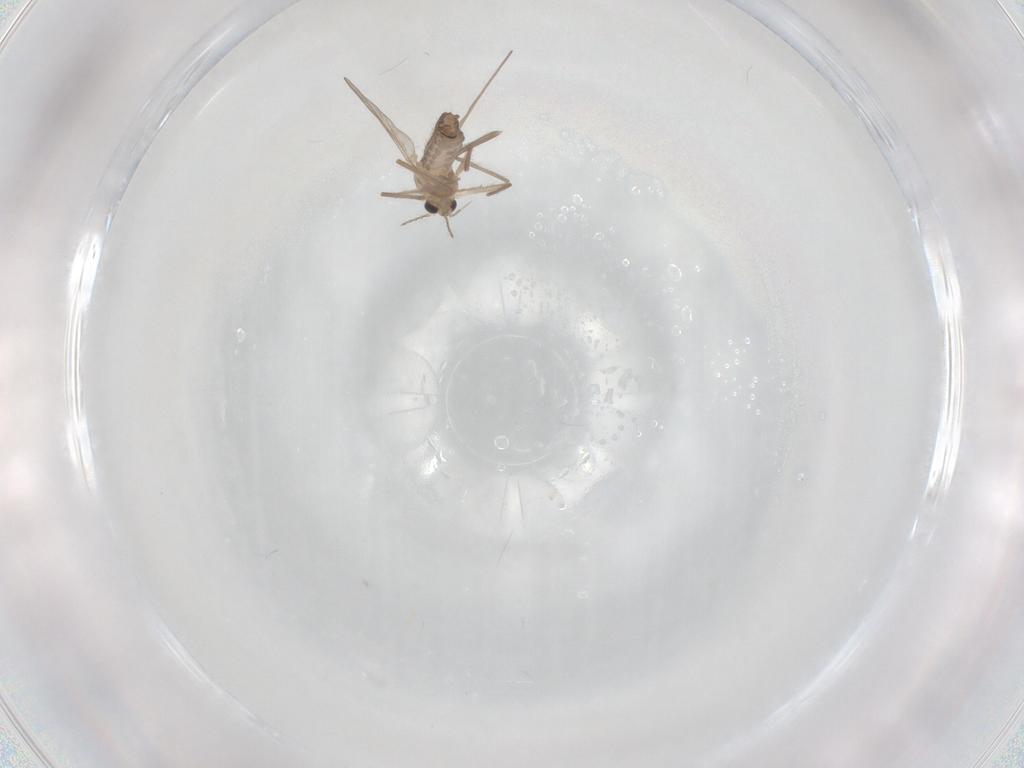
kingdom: Animalia
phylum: Arthropoda
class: Insecta
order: Diptera
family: Chironomidae
